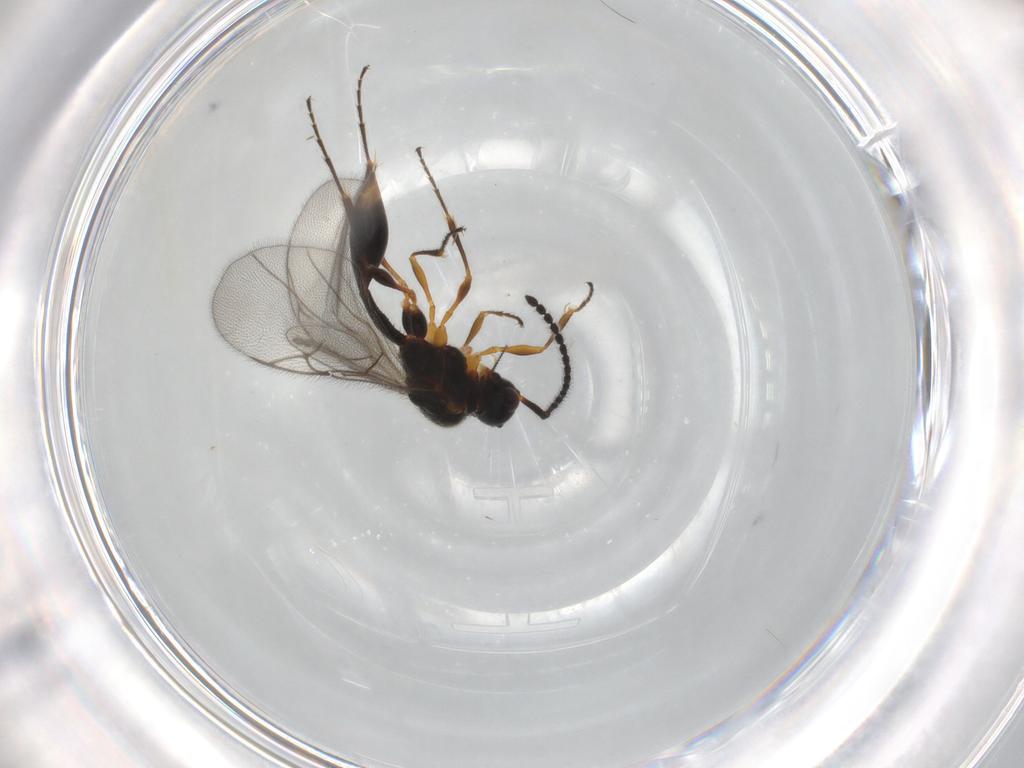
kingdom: Animalia
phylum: Arthropoda
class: Insecta
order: Hymenoptera
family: Diapriidae
